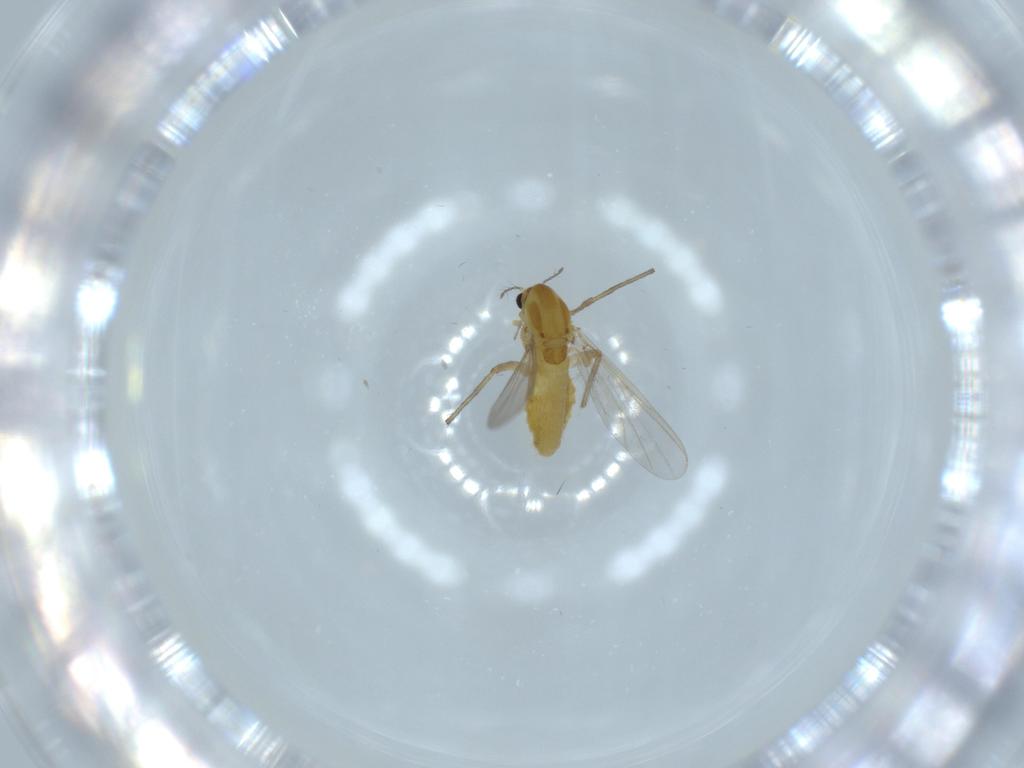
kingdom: Animalia
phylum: Arthropoda
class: Insecta
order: Diptera
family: Chironomidae
